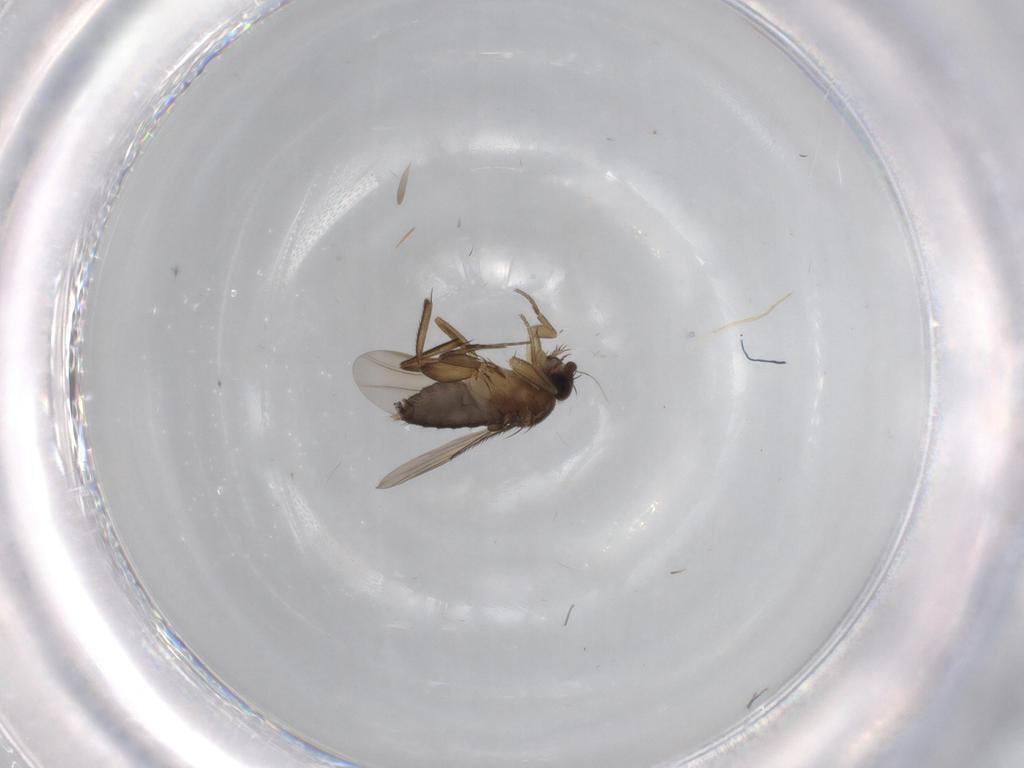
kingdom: Animalia
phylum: Arthropoda
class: Insecta
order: Diptera
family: Phoridae
